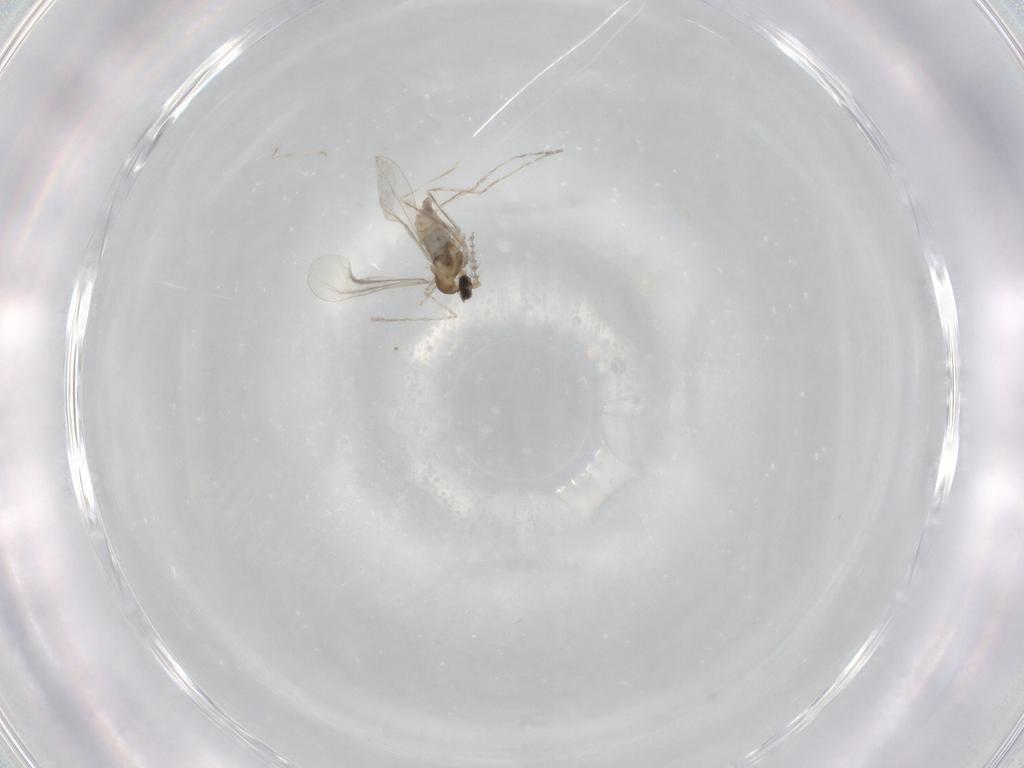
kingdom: Animalia
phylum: Arthropoda
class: Insecta
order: Diptera
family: Cecidomyiidae
